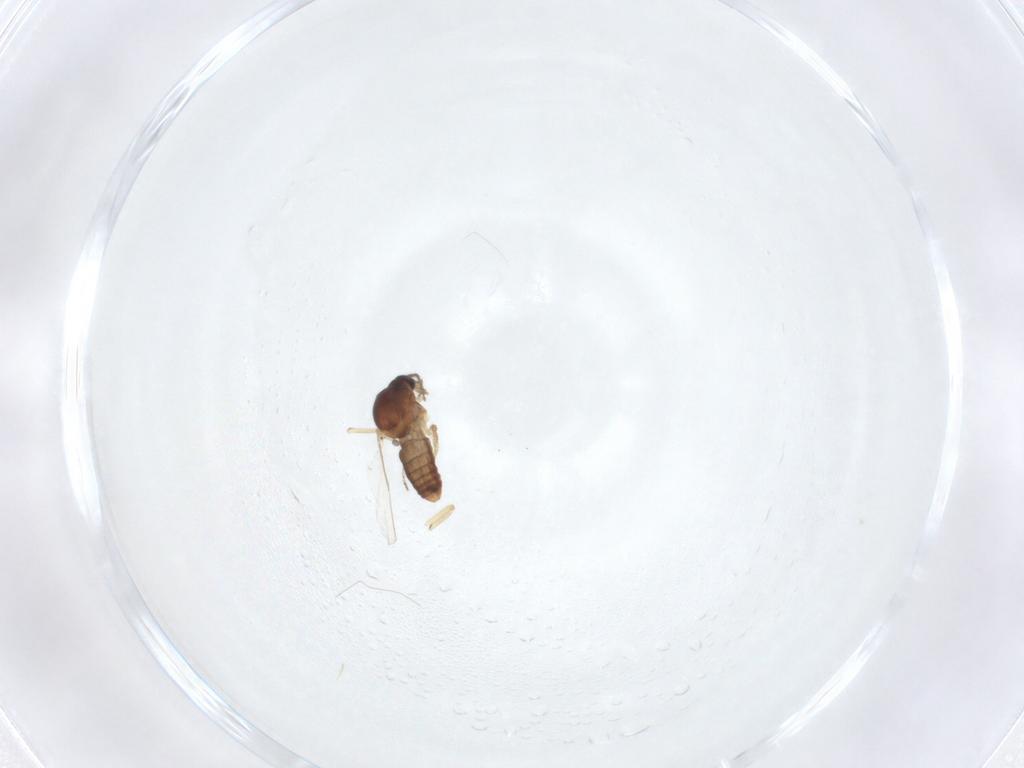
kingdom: Animalia
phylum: Arthropoda
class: Insecta
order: Diptera
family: Ceratopogonidae
